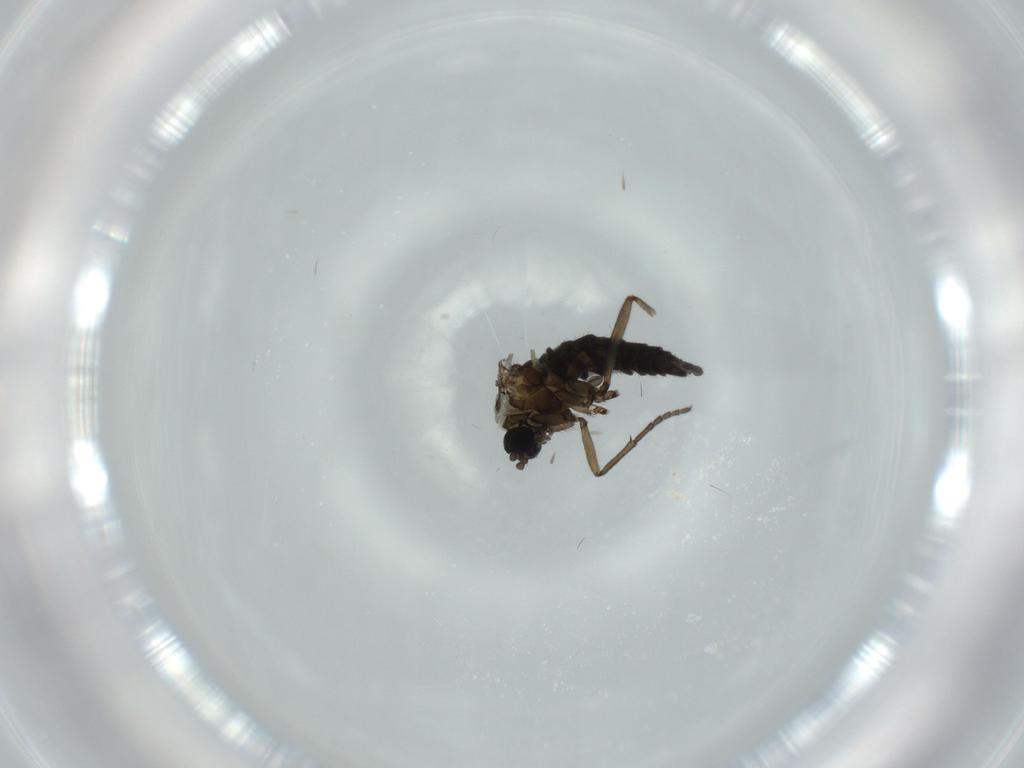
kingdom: Animalia
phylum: Arthropoda
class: Insecta
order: Diptera
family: Sciaridae
